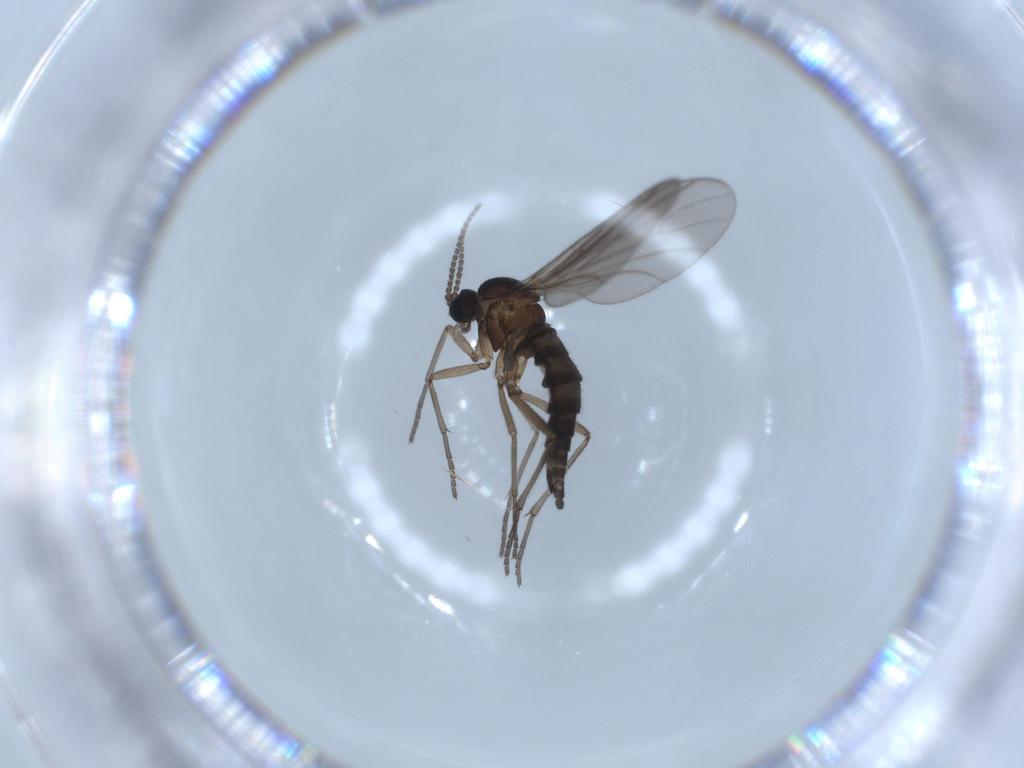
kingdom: Animalia
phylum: Arthropoda
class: Insecta
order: Diptera
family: Sciaridae
